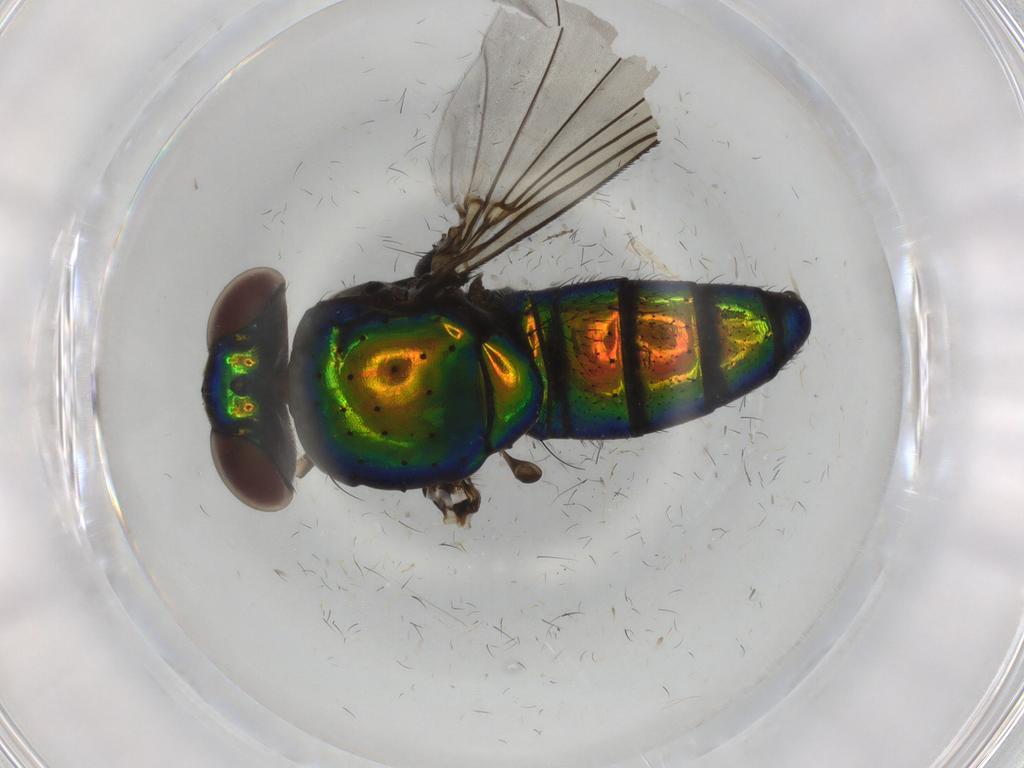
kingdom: Animalia
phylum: Arthropoda
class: Insecta
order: Diptera
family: Dolichopodidae
